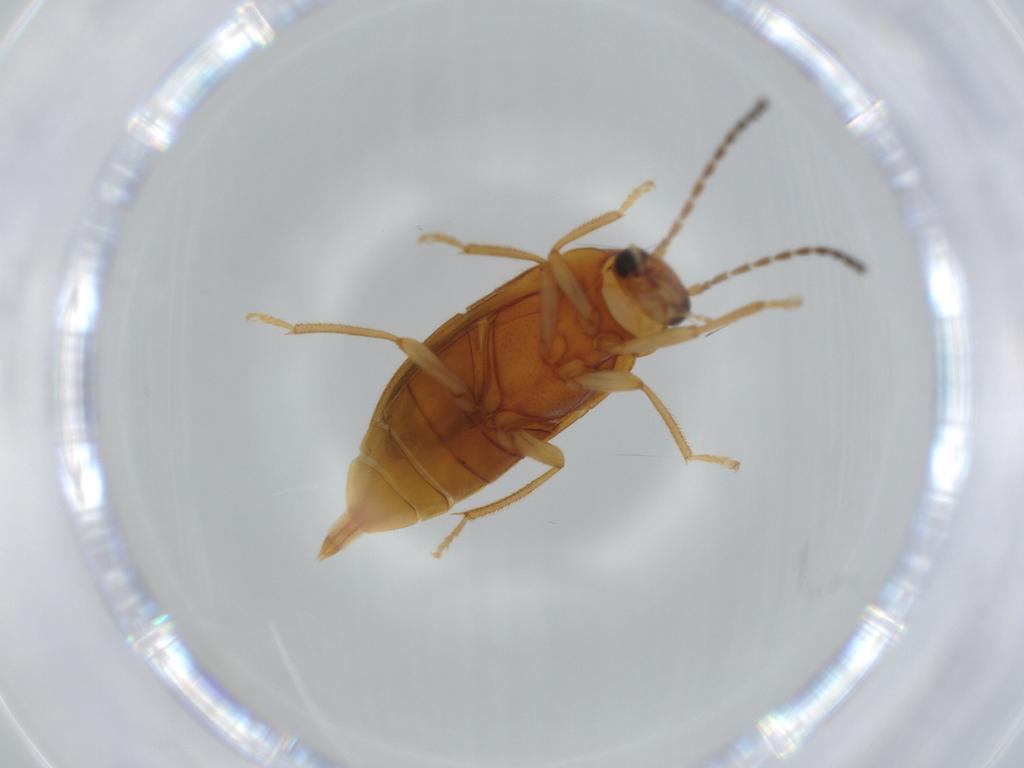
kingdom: Animalia
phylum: Arthropoda
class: Insecta
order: Coleoptera
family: Ptilodactylidae
